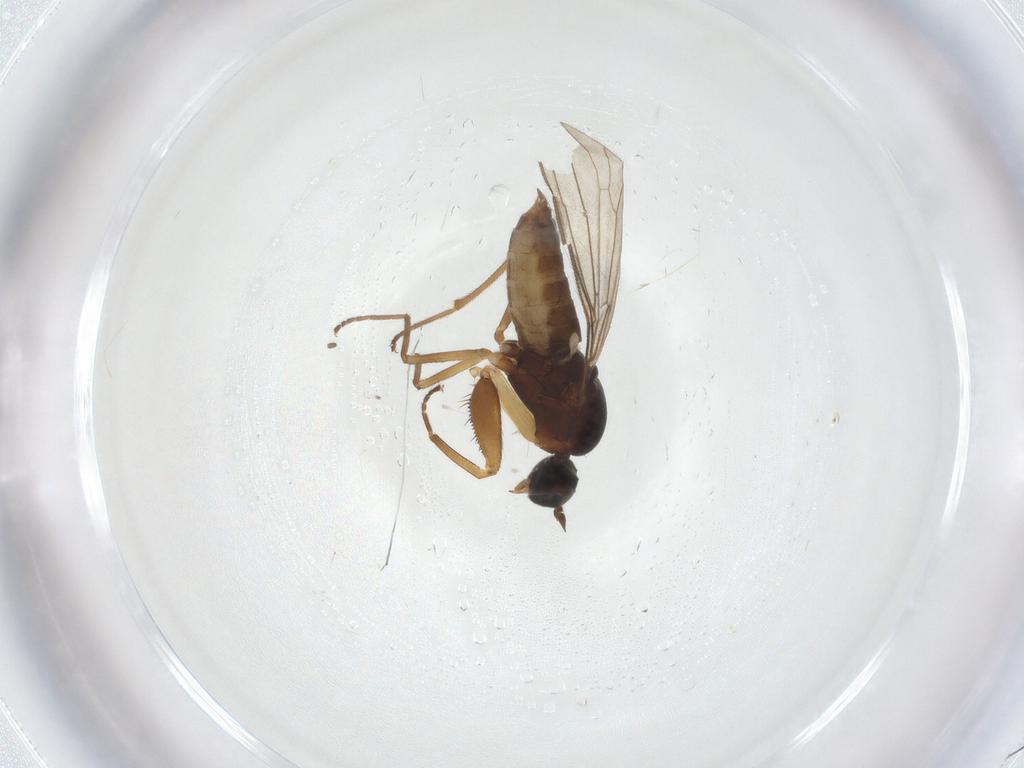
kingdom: Animalia
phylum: Arthropoda
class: Insecta
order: Diptera
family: Empididae
